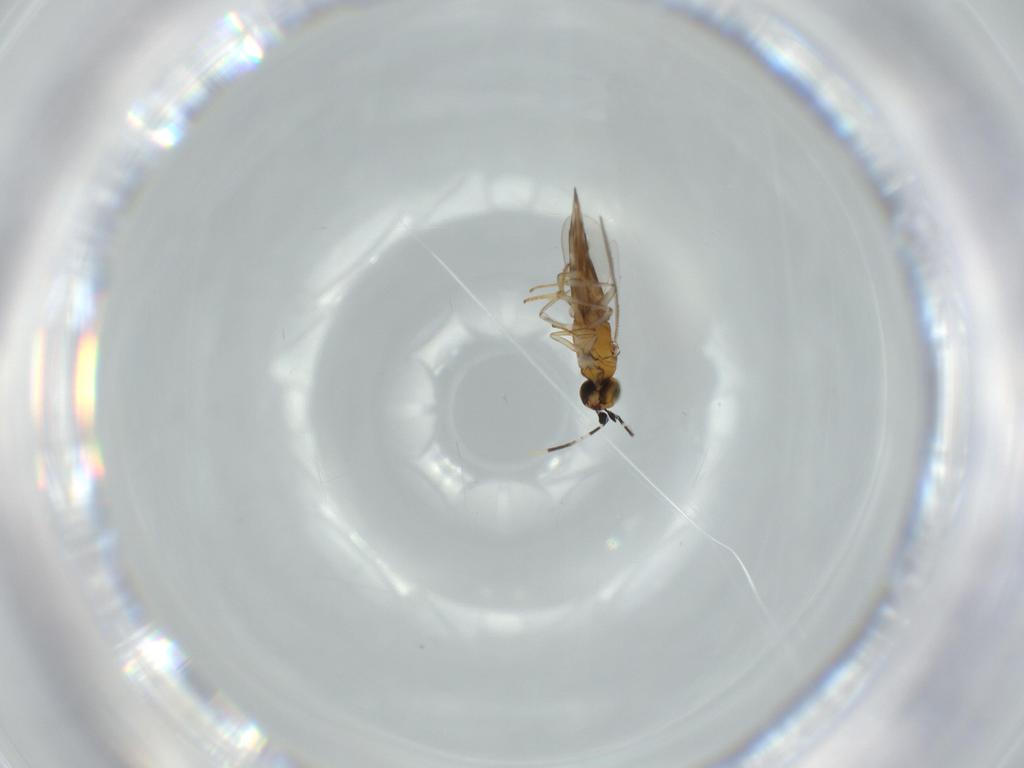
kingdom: Animalia
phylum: Arthropoda
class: Insecta
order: Hymenoptera
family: Scelionidae
